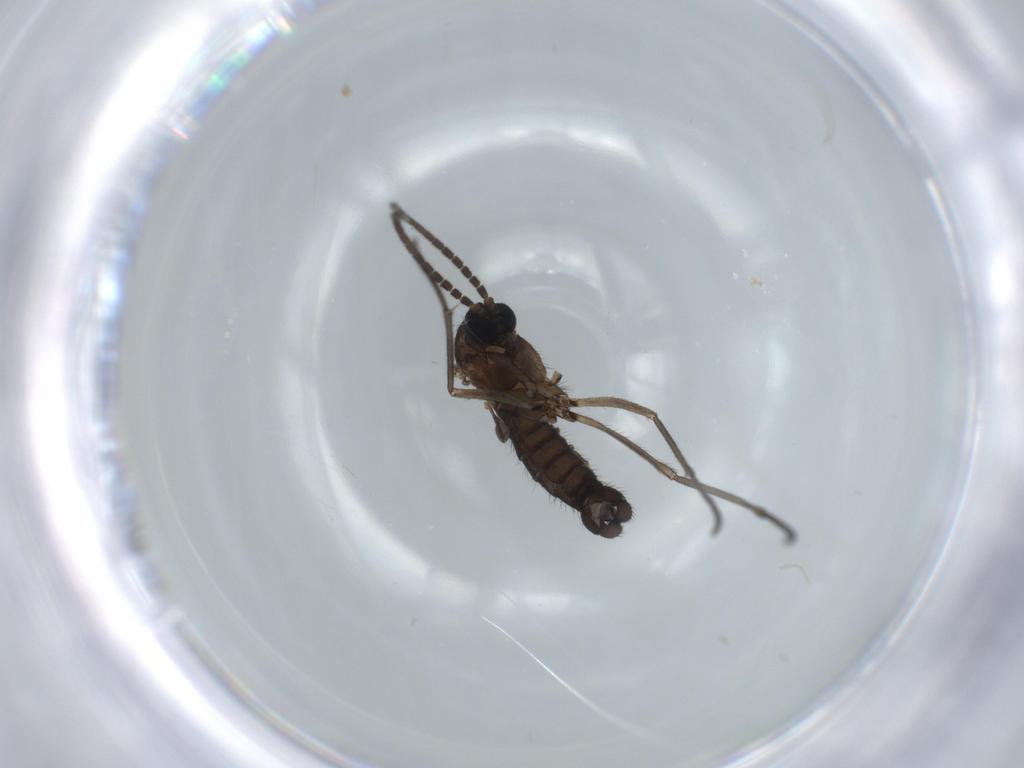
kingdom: Animalia
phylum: Arthropoda
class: Insecta
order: Diptera
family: Sciaridae
